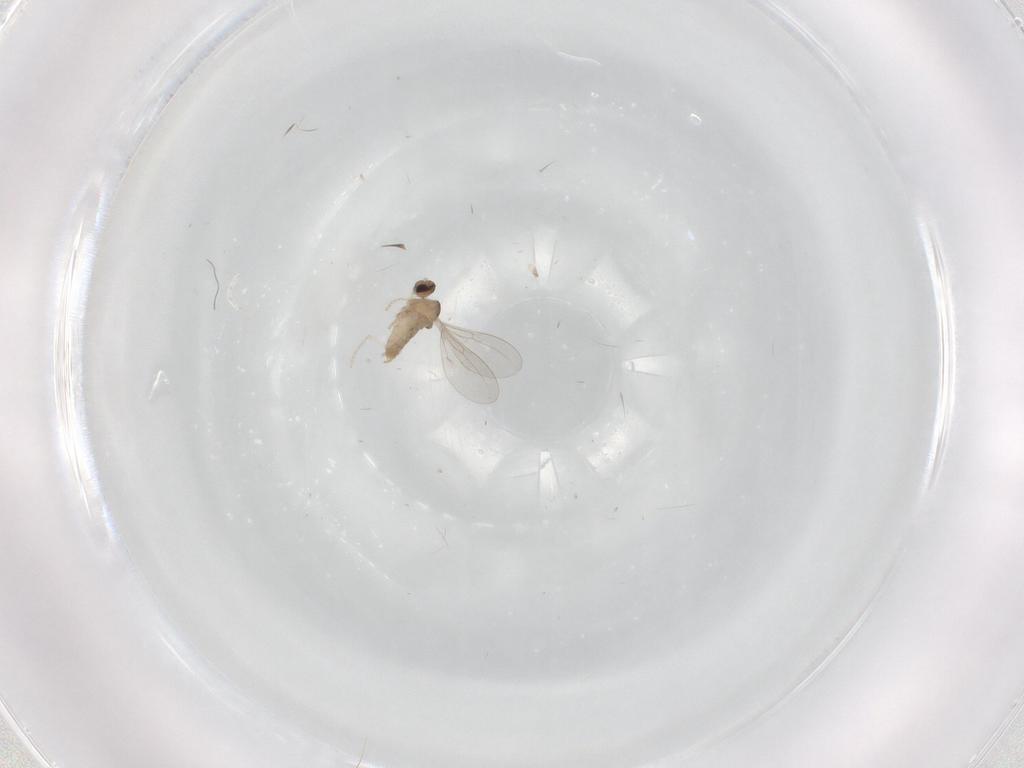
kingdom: Animalia
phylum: Arthropoda
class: Insecta
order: Diptera
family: Cecidomyiidae
